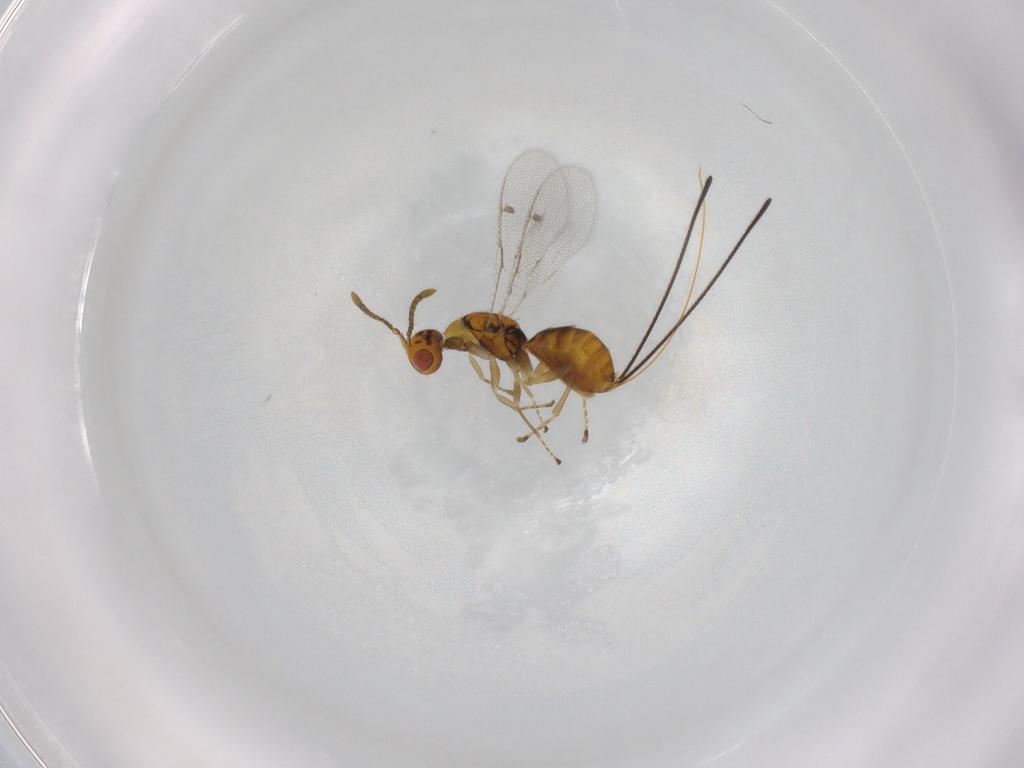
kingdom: Animalia
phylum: Arthropoda
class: Insecta
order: Hymenoptera
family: Megastigmidae
